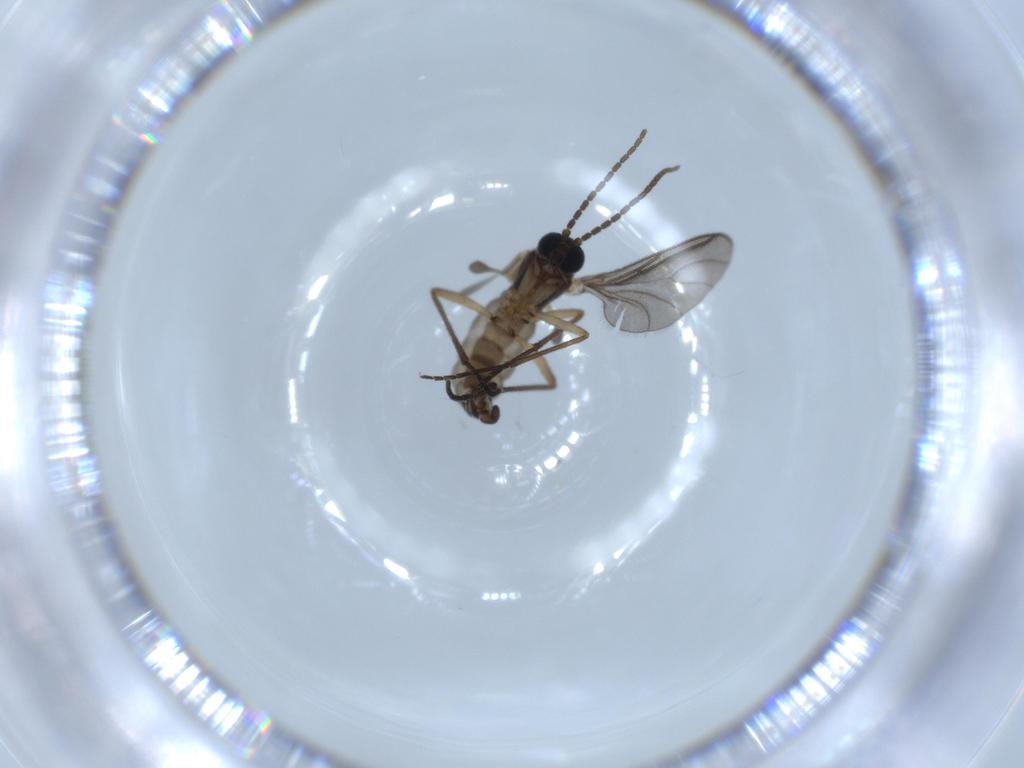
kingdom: Animalia
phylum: Arthropoda
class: Insecta
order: Diptera
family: Sciaridae
